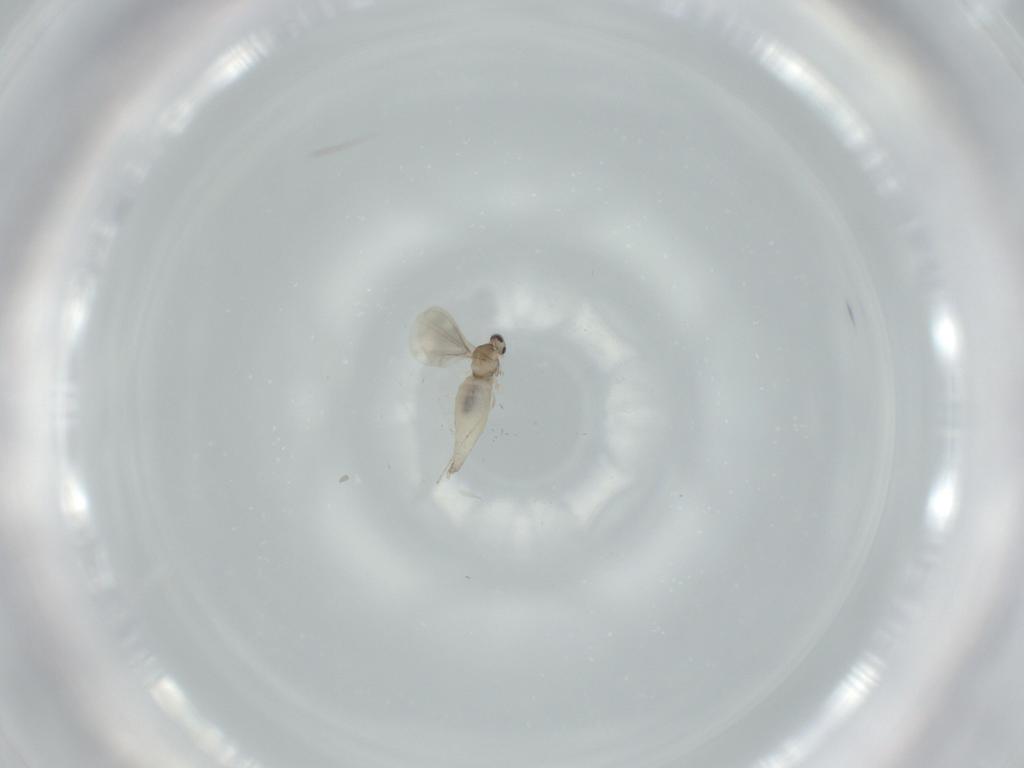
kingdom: Animalia
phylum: Arthropoda
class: Insecta
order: Diptera
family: Cecidomyiidae
